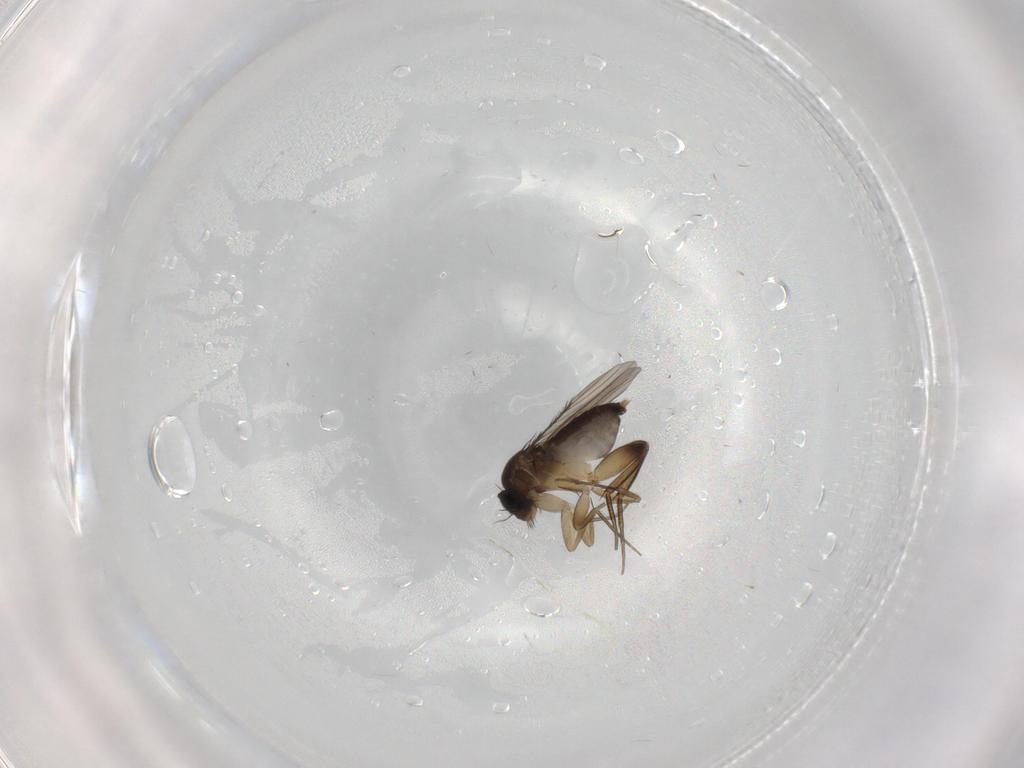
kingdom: Animalia
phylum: Arthropoda
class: Insecta
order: Diptera
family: Phoridae
